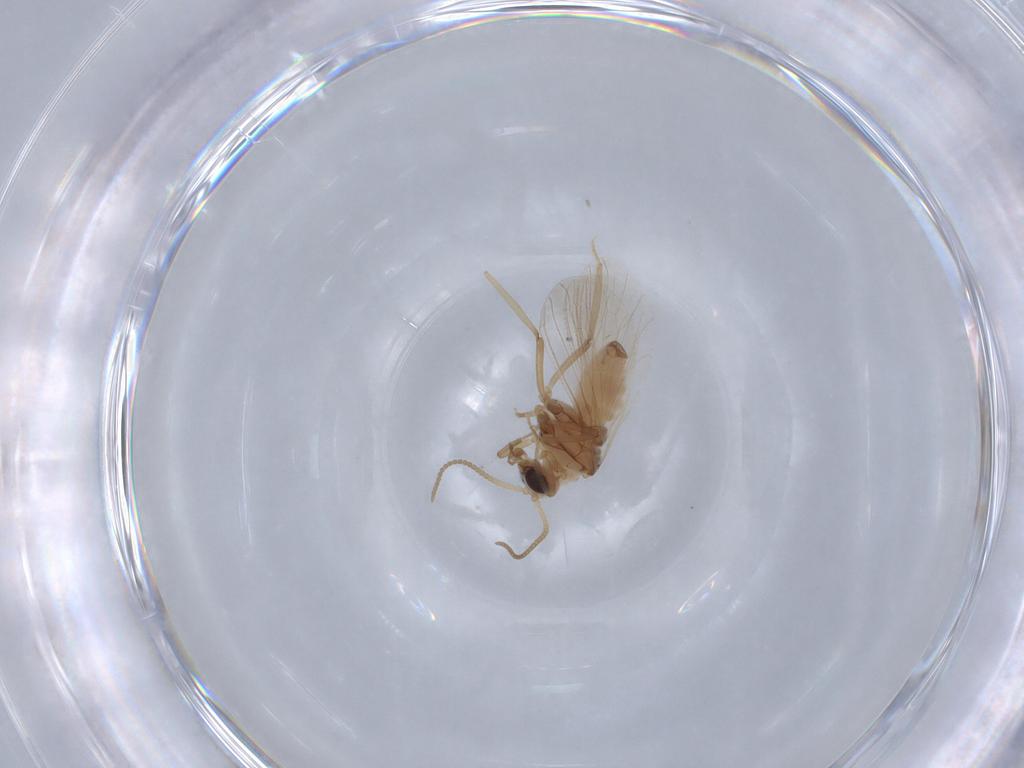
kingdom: Animalia
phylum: Arthropoda
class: Insecta
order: Neuroptera
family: Coniopterygidae
